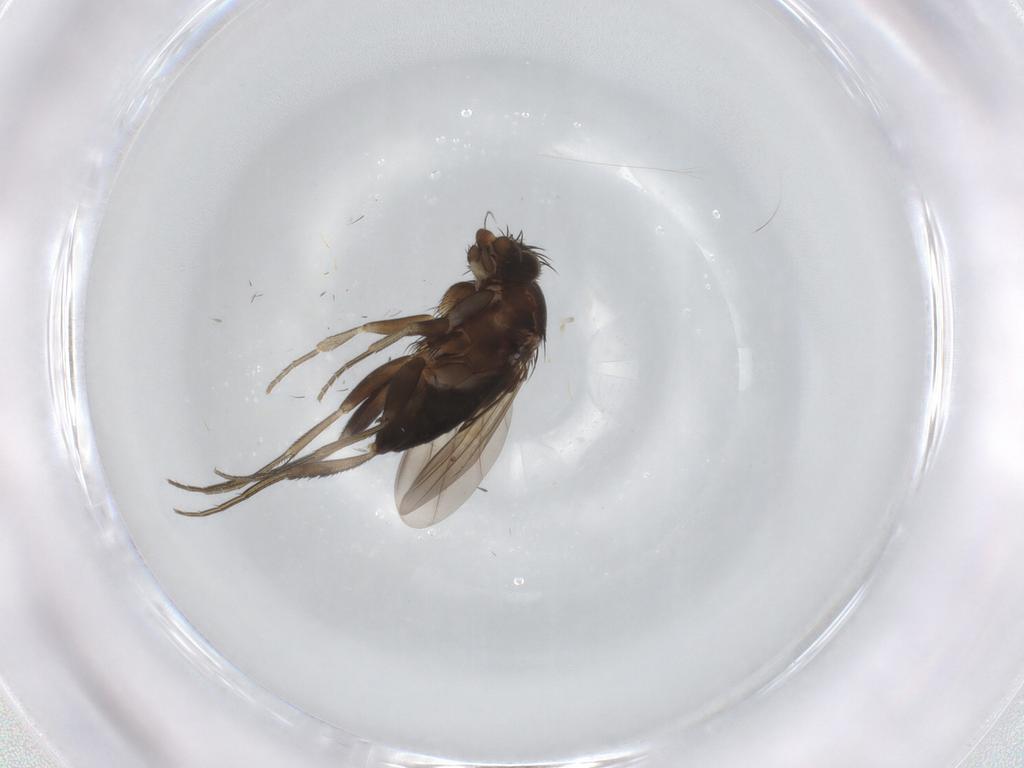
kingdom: Animalia
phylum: Arthropoda
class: Insecta
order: Diptera
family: Phoridae
